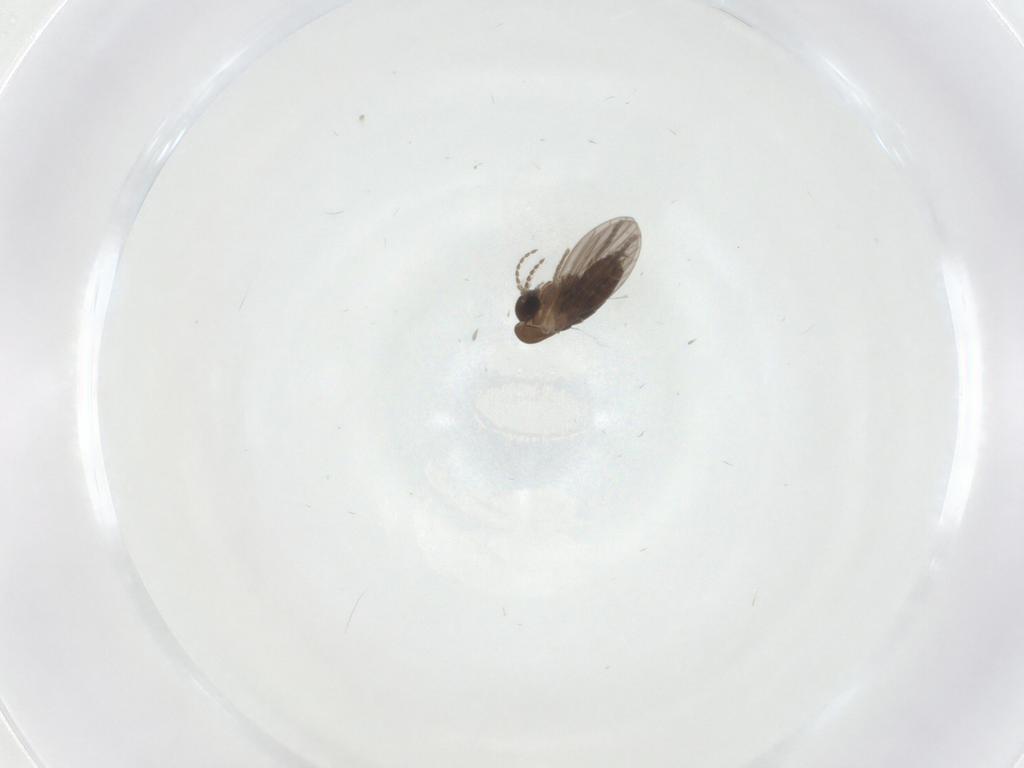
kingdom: Animalia
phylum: Arthropoda
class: Insecta
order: Diptera
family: Psychodidae
